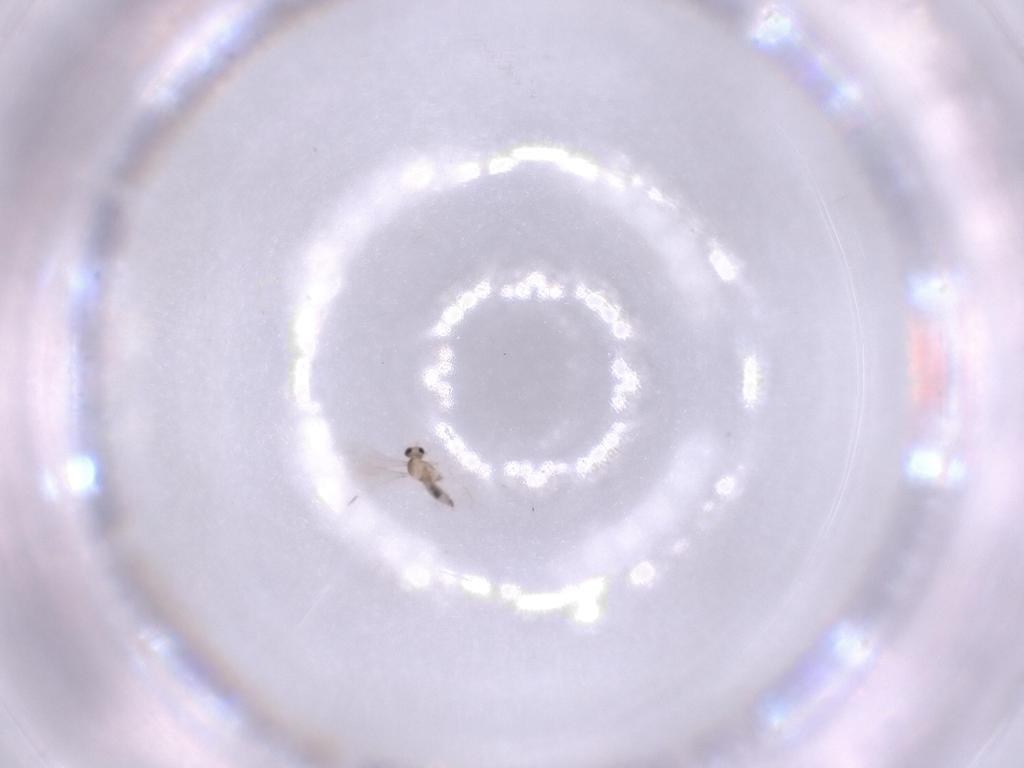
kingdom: Animalia
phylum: Arthropoda
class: Insecta
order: Diptera
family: Cecidomyiidae
